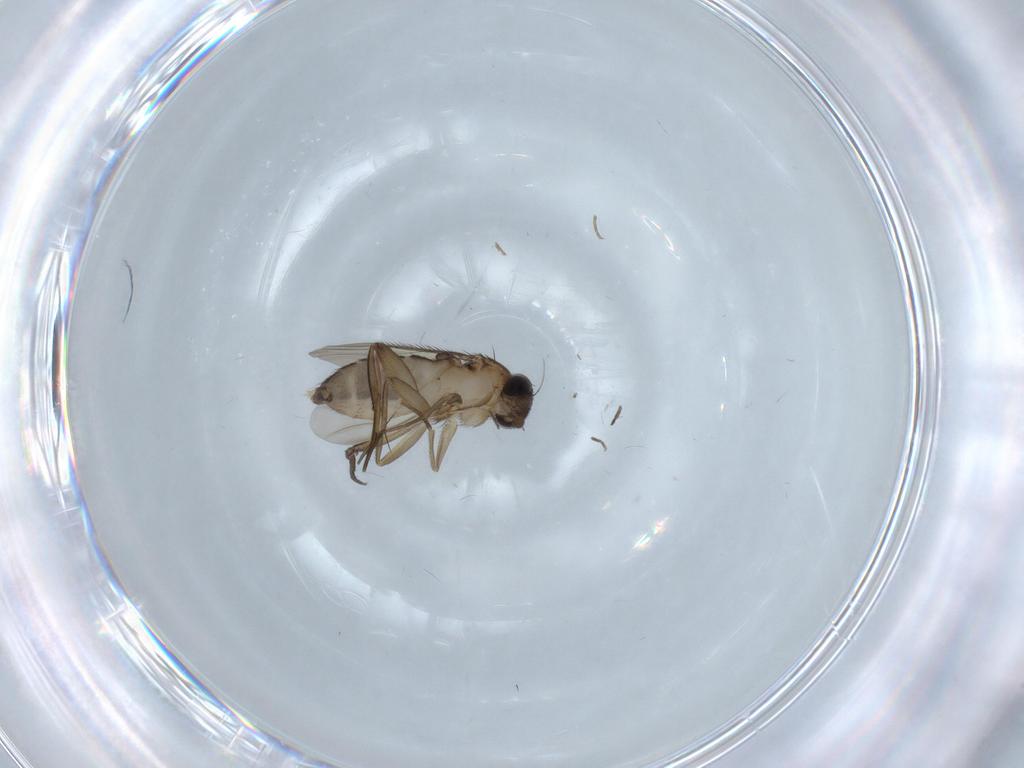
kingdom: Animalia
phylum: Arthropoda
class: Insecta
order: Diptera
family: Phoridae
